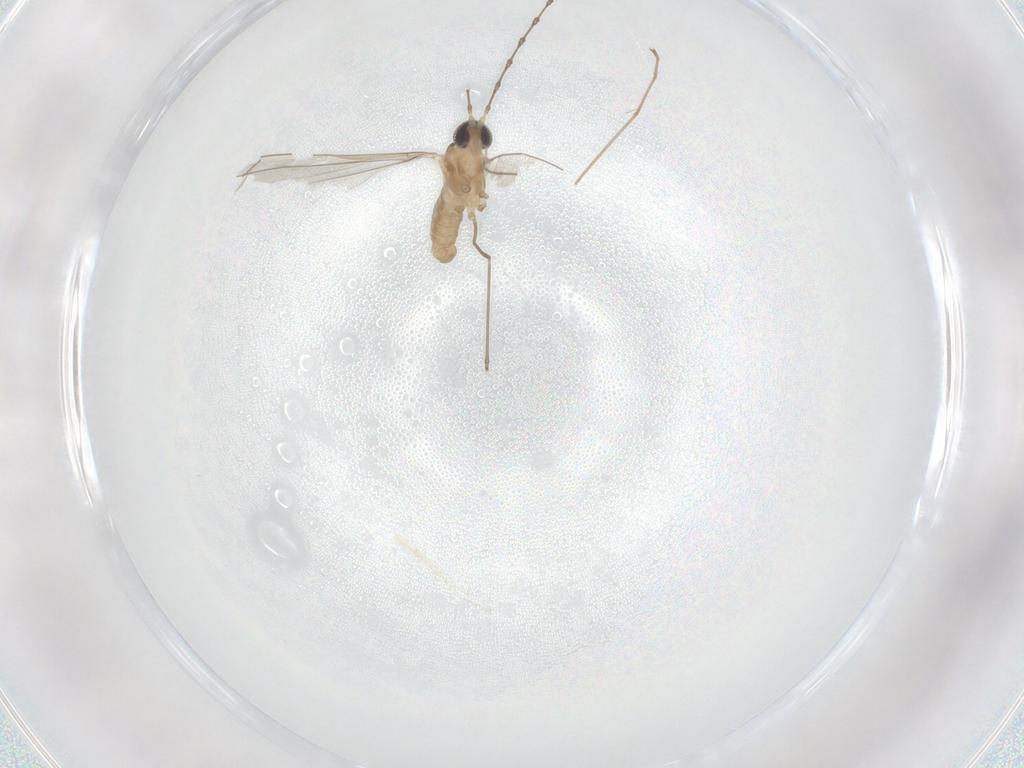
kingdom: Animalia
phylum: Arthropoda
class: Insecta
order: Diptera
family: Cecidomyiidae
